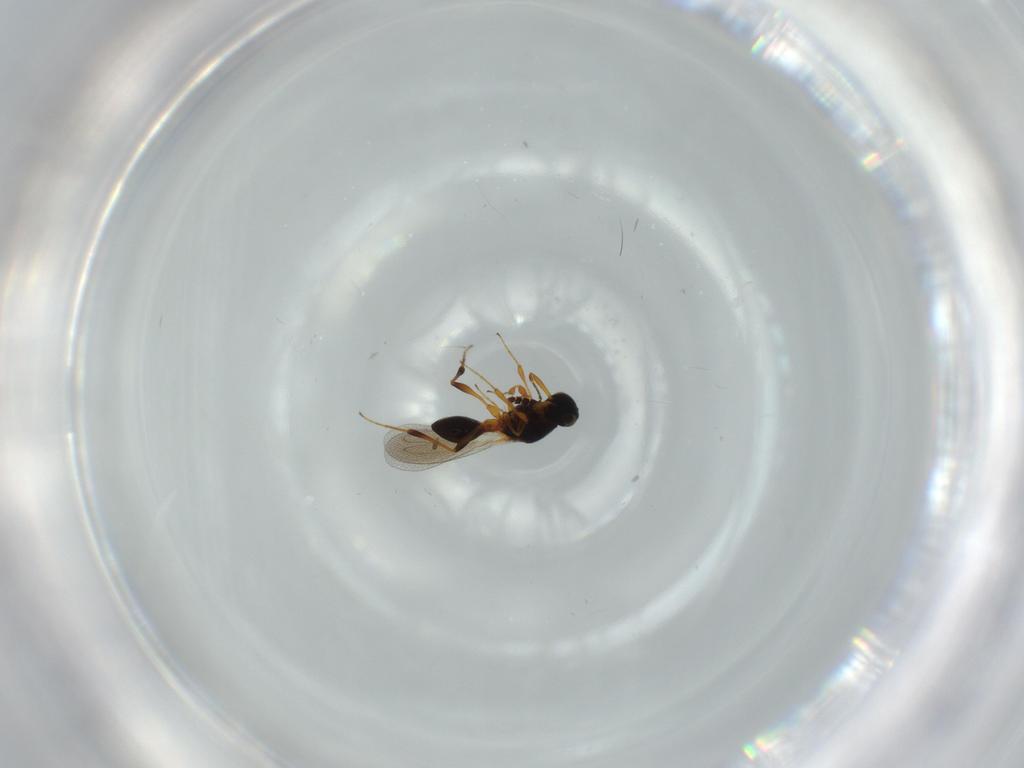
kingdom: Animalia
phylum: Arthropoda
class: Insecta
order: Hymenoptera
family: Platygastridae
